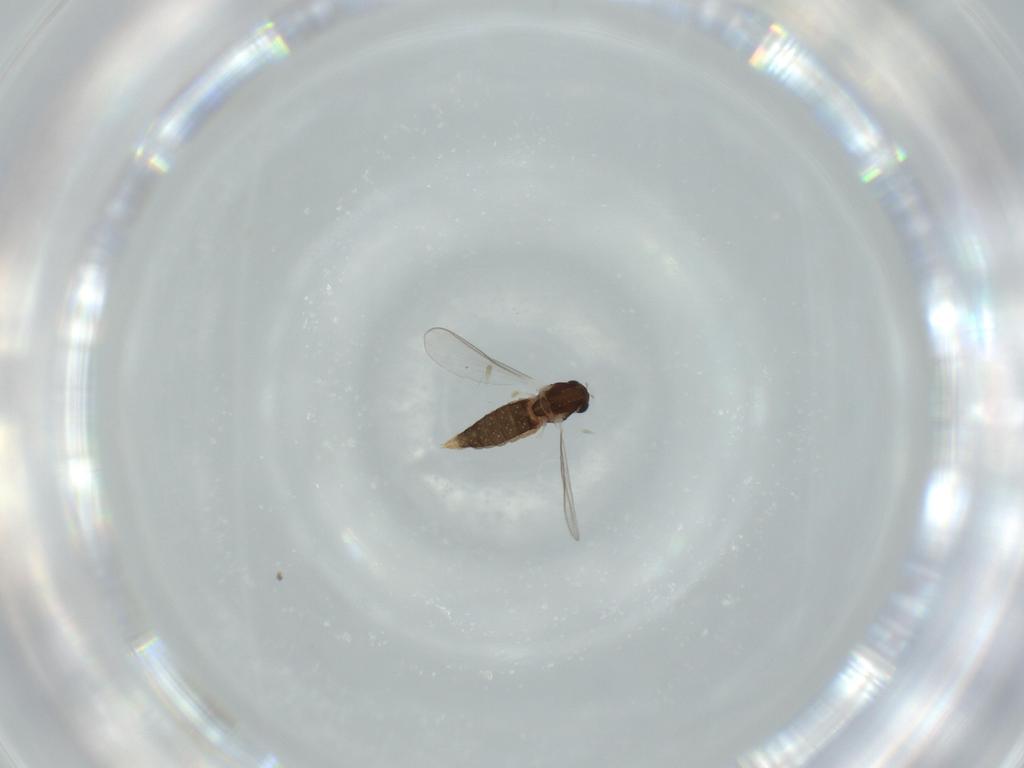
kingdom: Animalia
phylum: Arthropoda
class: Insecta
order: Diptera
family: Chironomidae
